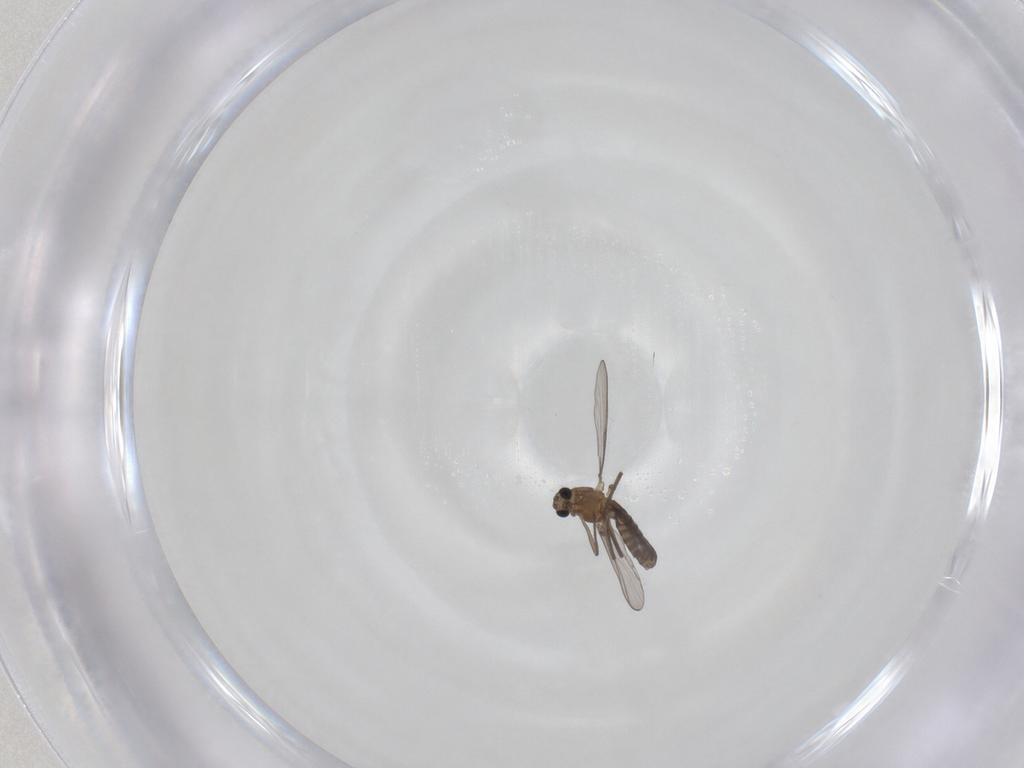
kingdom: Animalia
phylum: Arthropoda
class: Insecta
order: Diptera
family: Chironomidae
